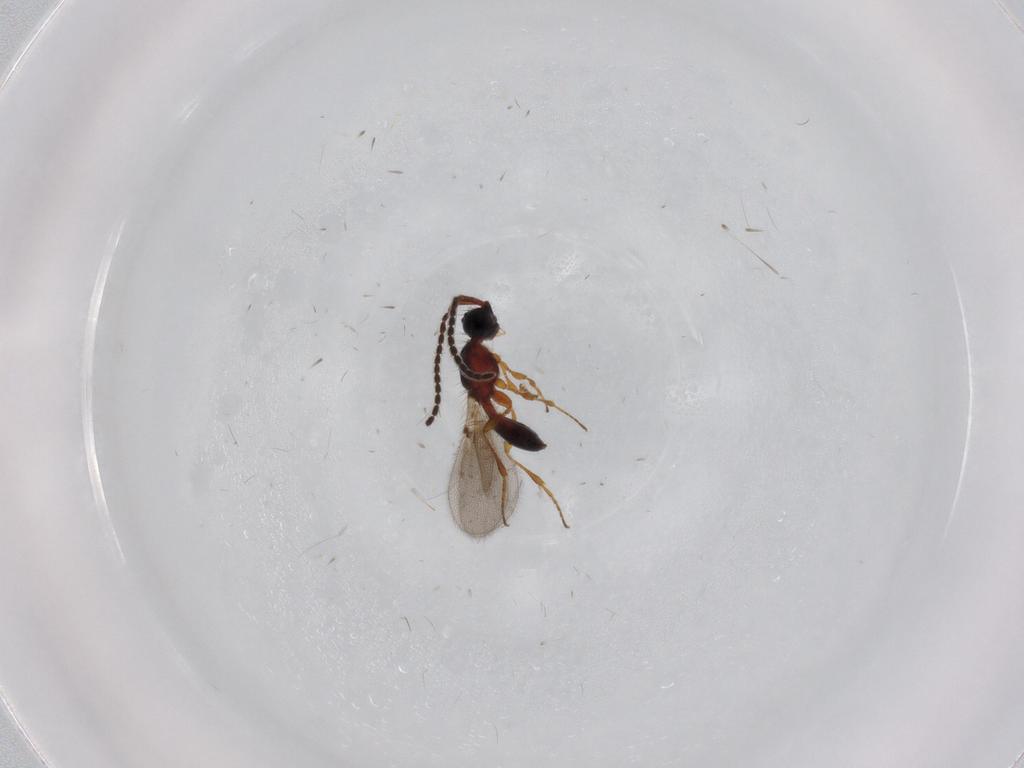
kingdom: Animalia
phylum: Arthropoda
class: Insecta
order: Hymenoptera
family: Diapriidae
